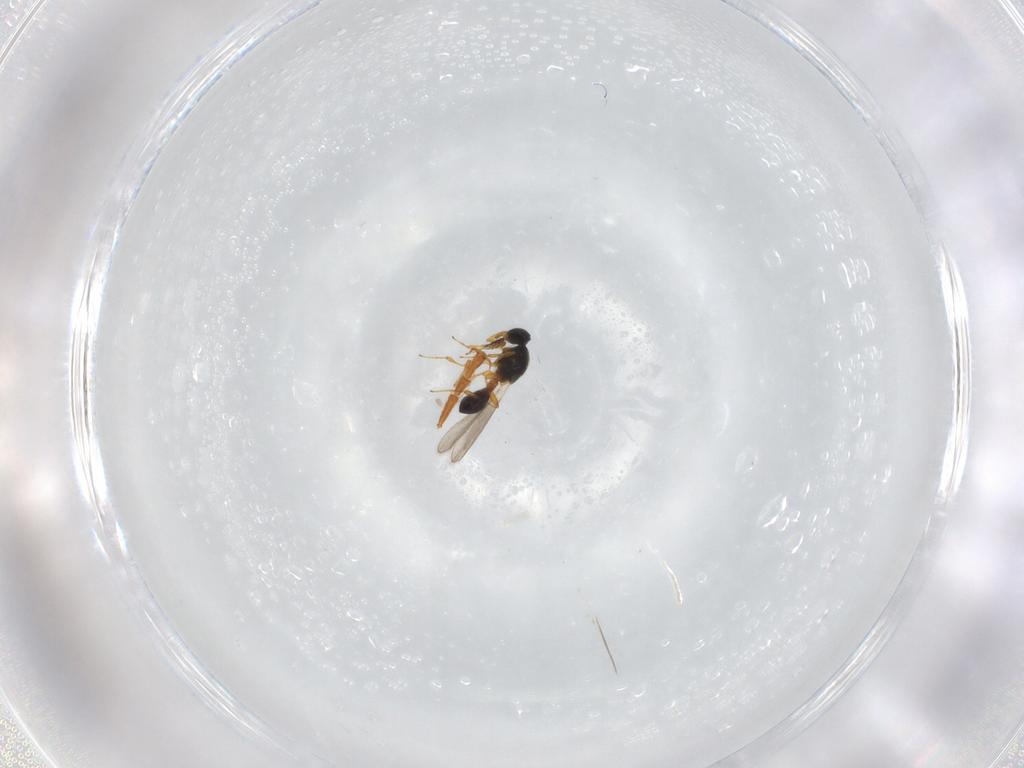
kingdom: Animalia
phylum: Arthropoda
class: Insecta
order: Hymenoptera
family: Platygastridae
